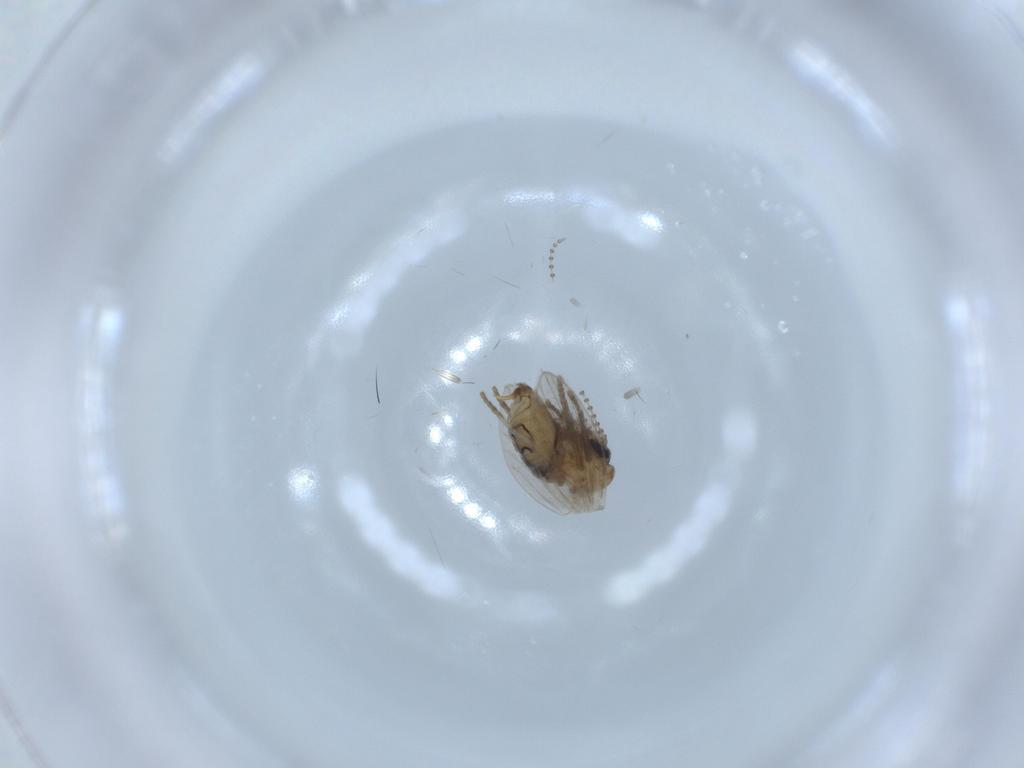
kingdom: Animalia
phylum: Arthropoda
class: Insecta
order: Diptera
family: Psychodidae
